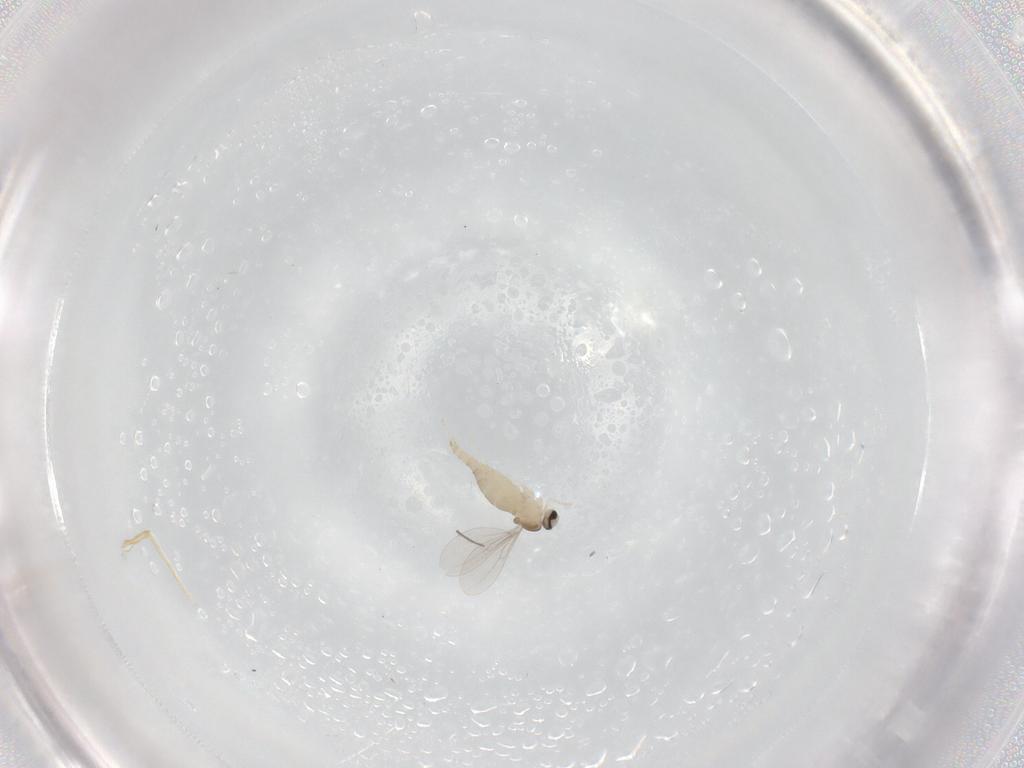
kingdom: Animalia
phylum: Arthropoda
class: Insecta
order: Diptera
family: Cecidomyiidae
